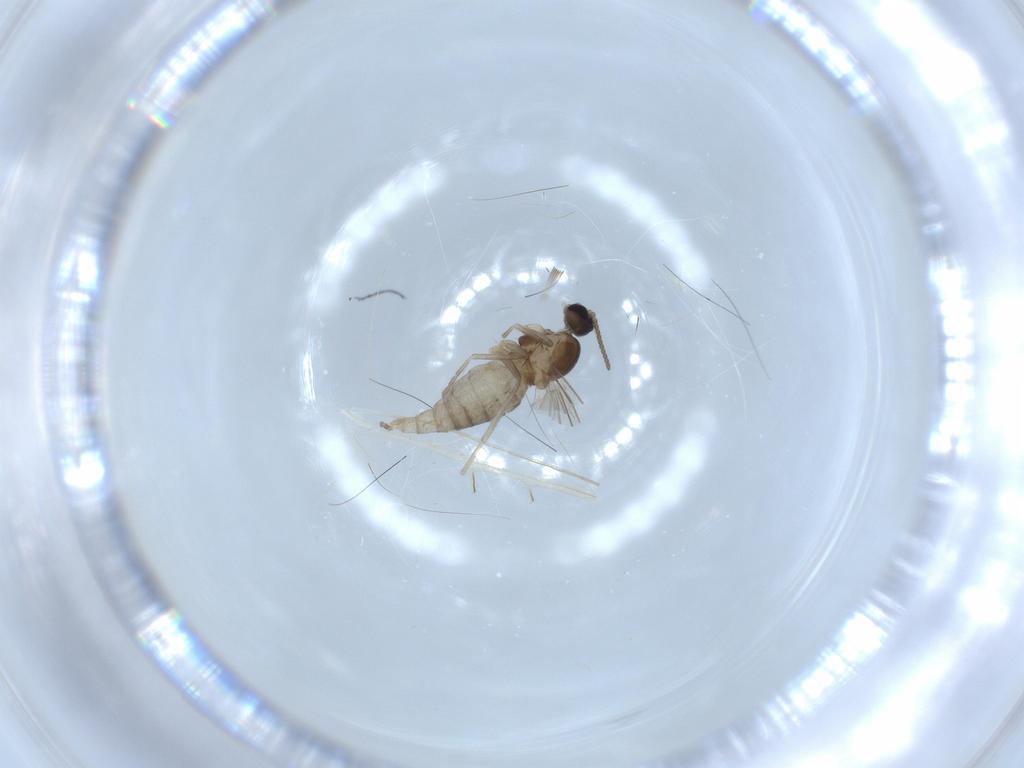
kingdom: Animalia
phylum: Arthropoda
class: Insecta
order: Diptera
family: Cecidomyiidae
